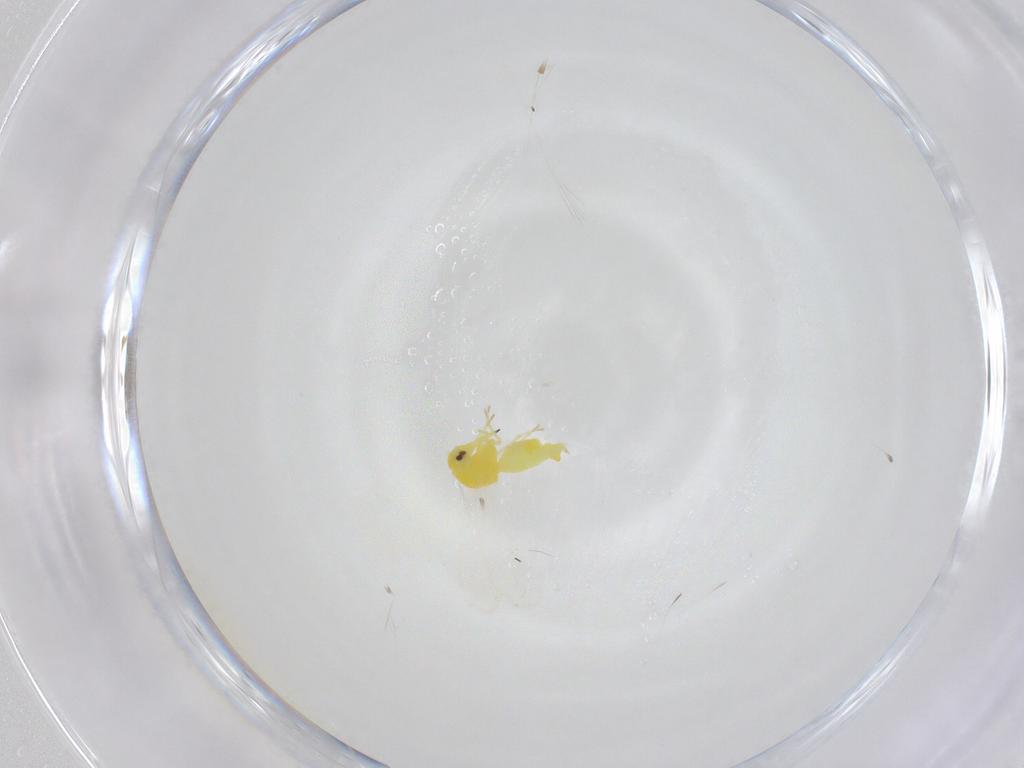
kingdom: Animalia
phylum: Arthropoda
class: Insecta
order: Hemiptera
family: Aleyrodidae
